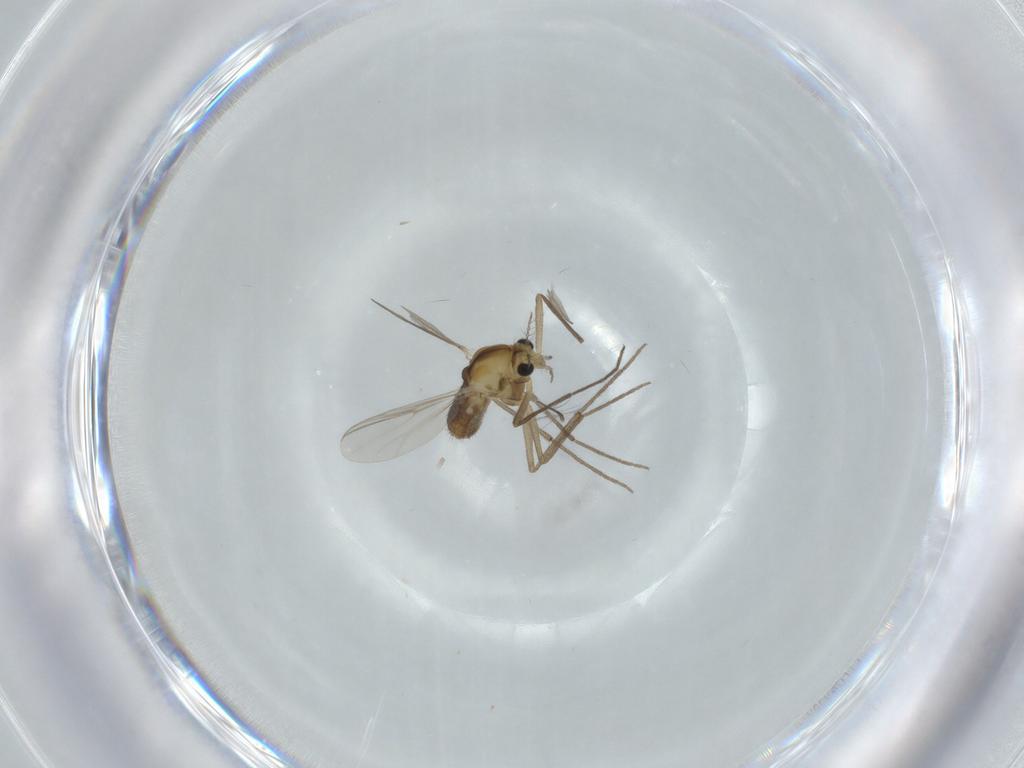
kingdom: Animalia
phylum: Arthropoda
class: Insecta
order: Diptera
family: Chironomidae
